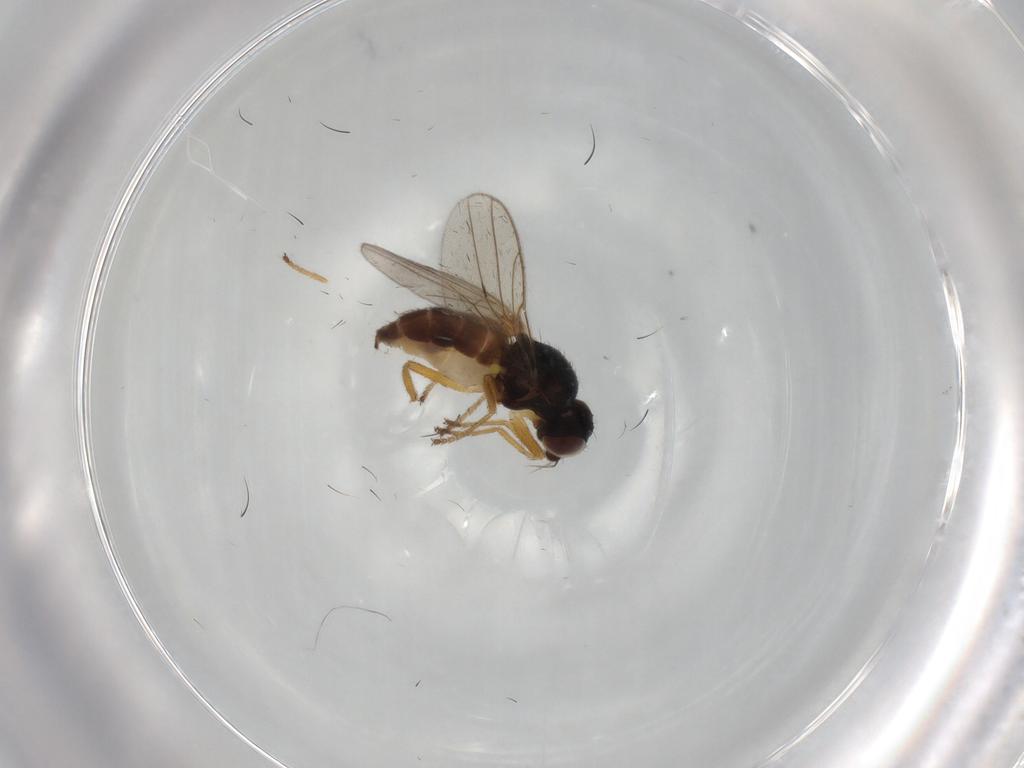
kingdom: Animalia
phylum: Arthropoda
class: Insecta
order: Diptera
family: Chloropidae
